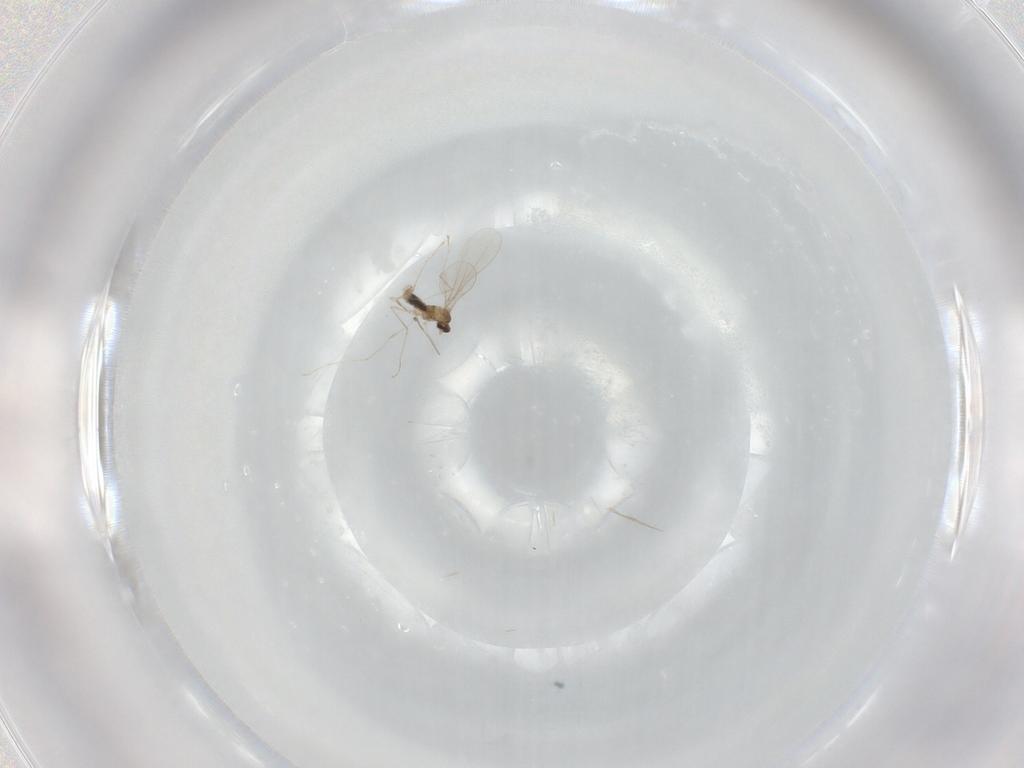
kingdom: Animalia
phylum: Arthropoda
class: Insecta
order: Diptera
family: Cecidomyiidae
